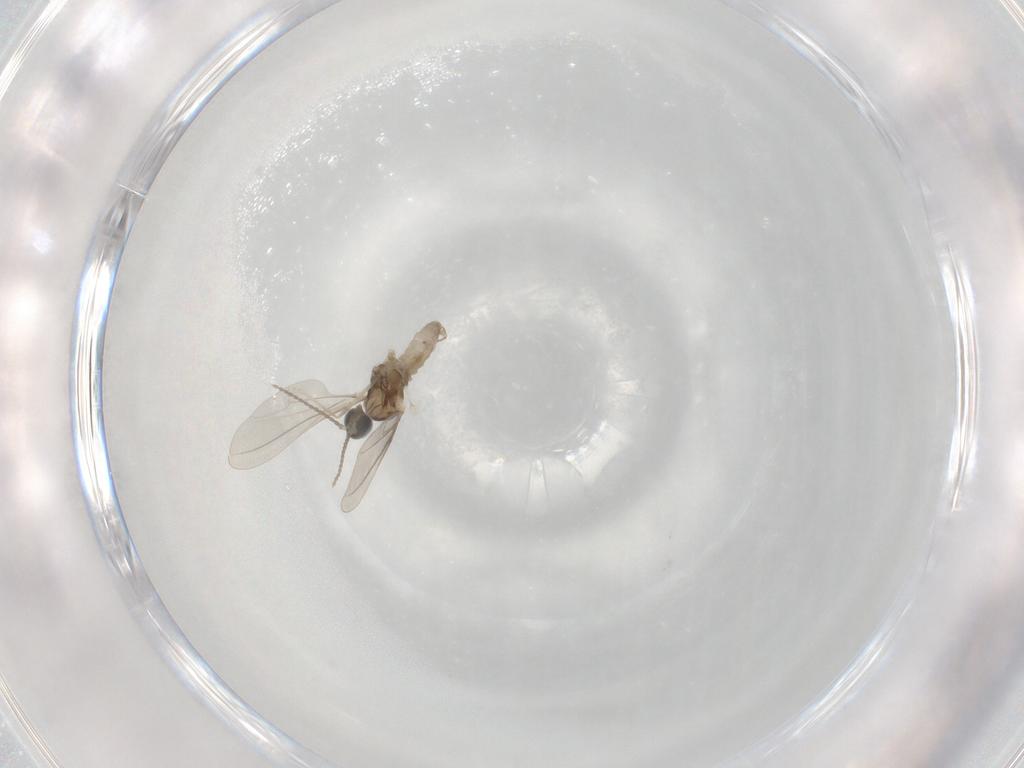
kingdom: Animalia
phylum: Arthropoda
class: Insecta
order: Diptera
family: Cecidomyiidae
